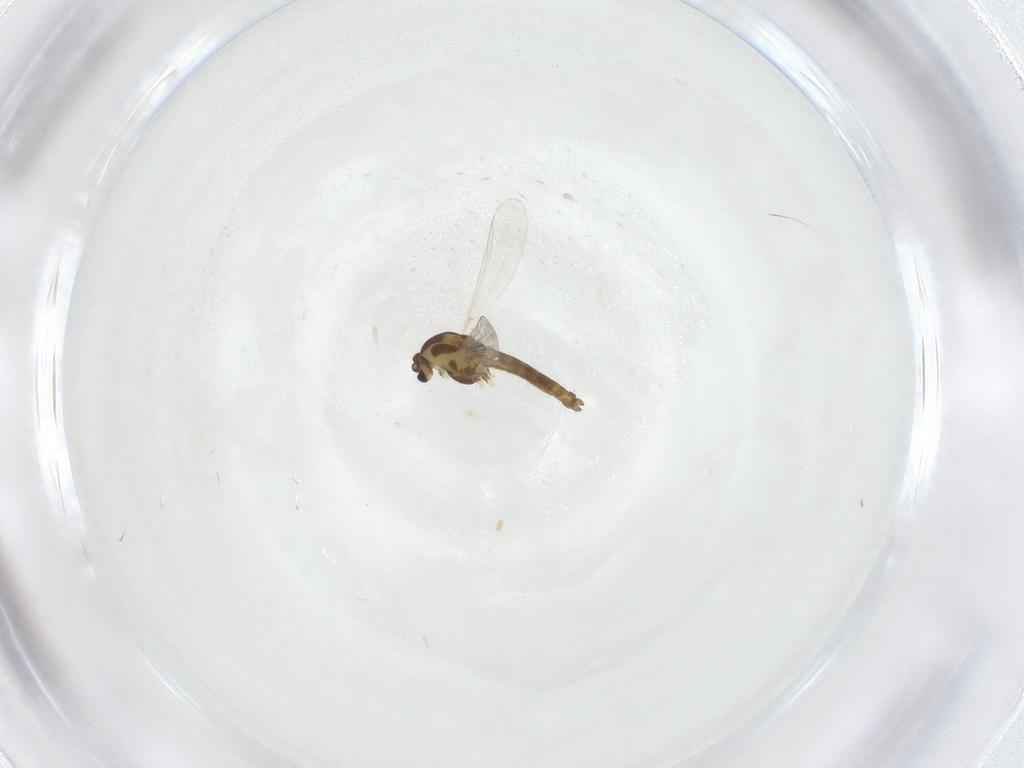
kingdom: Animalia
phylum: Arthropoda
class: Insecta
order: Diptera
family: Chironomidae
